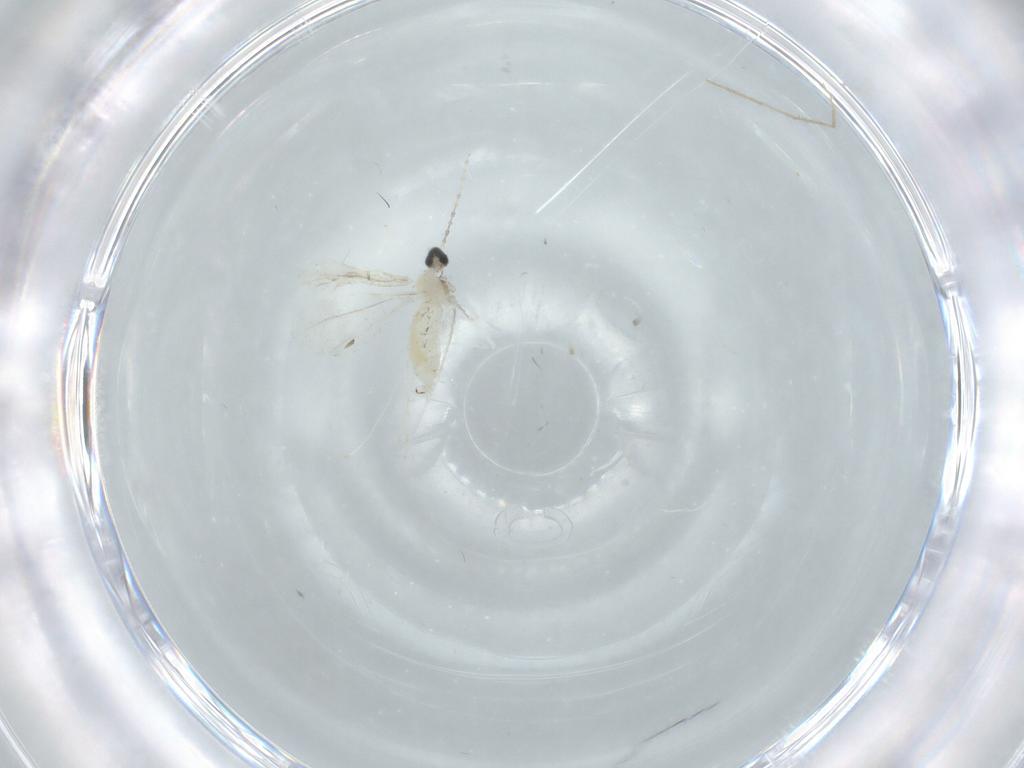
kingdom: Animalia
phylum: Arthropoda
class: Insecta
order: Diptera
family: Cecidomyiidae
